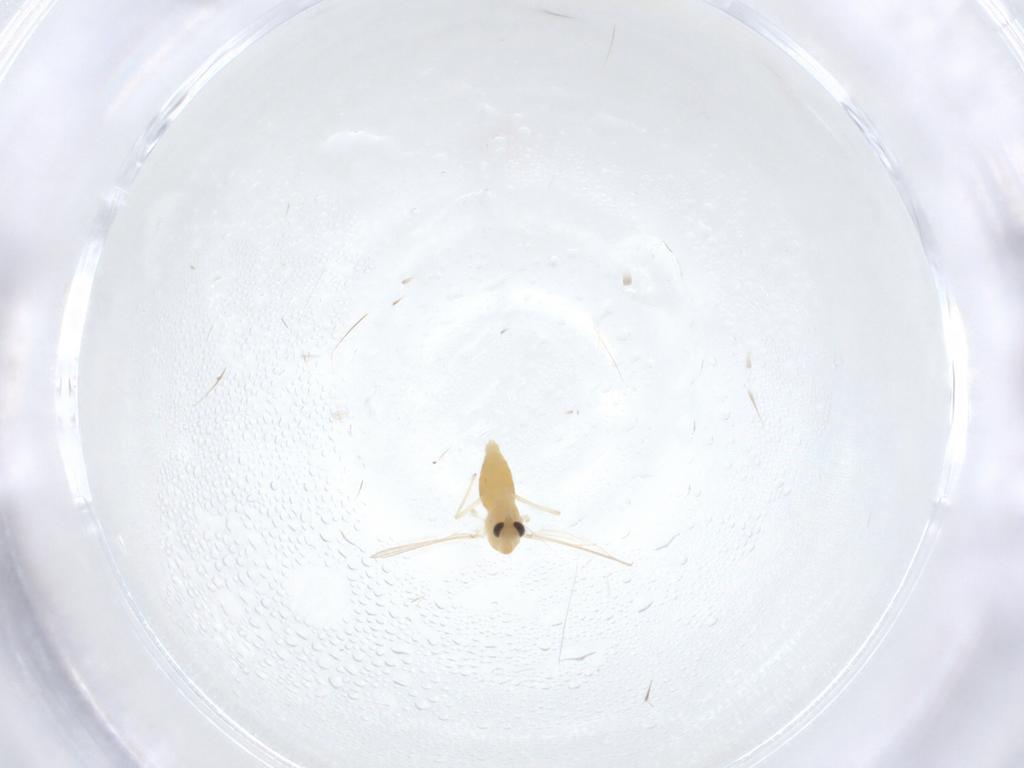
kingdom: Animalia
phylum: Arthropoda
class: Insecta
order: Diptera
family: Chironomidae
